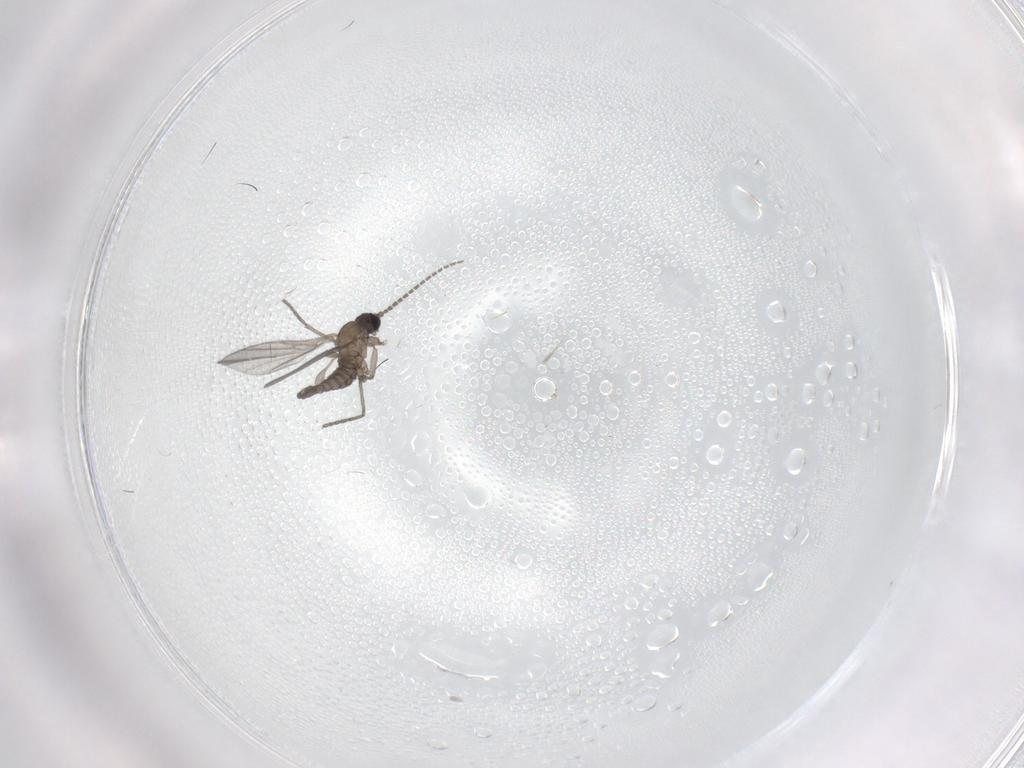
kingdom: Animalia
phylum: Arthropoda
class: Insecta
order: Diptera
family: Sciaridae
